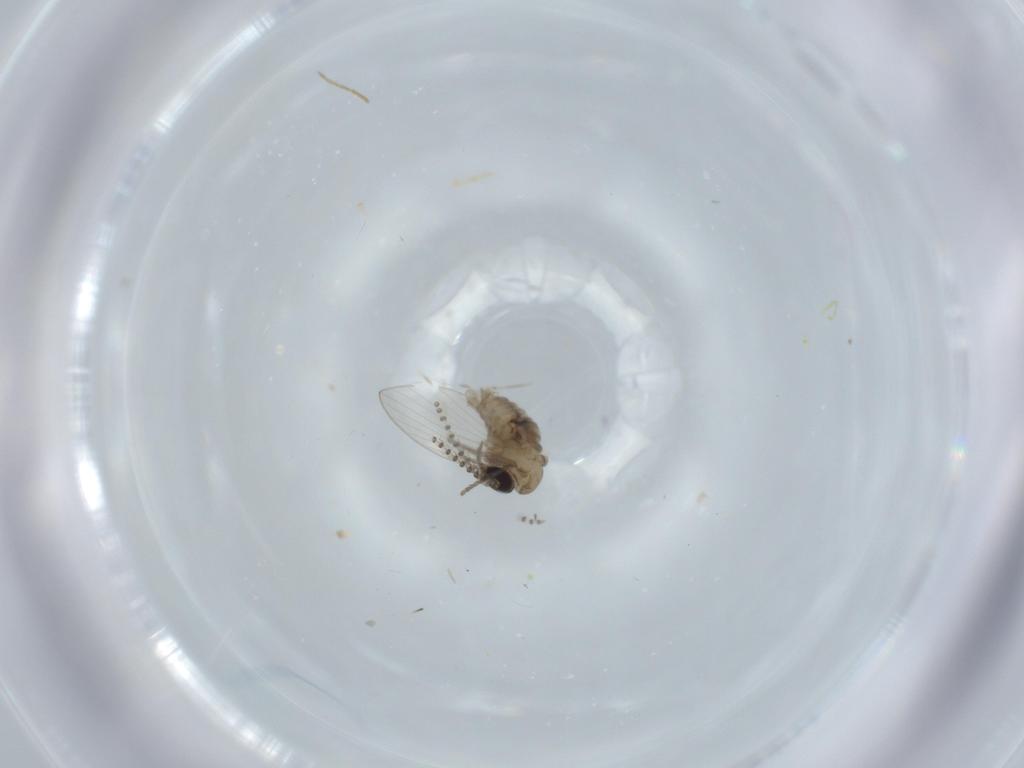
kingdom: Animalia
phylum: Arthropoda
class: Insecta
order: Diptera
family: Psychodidae
